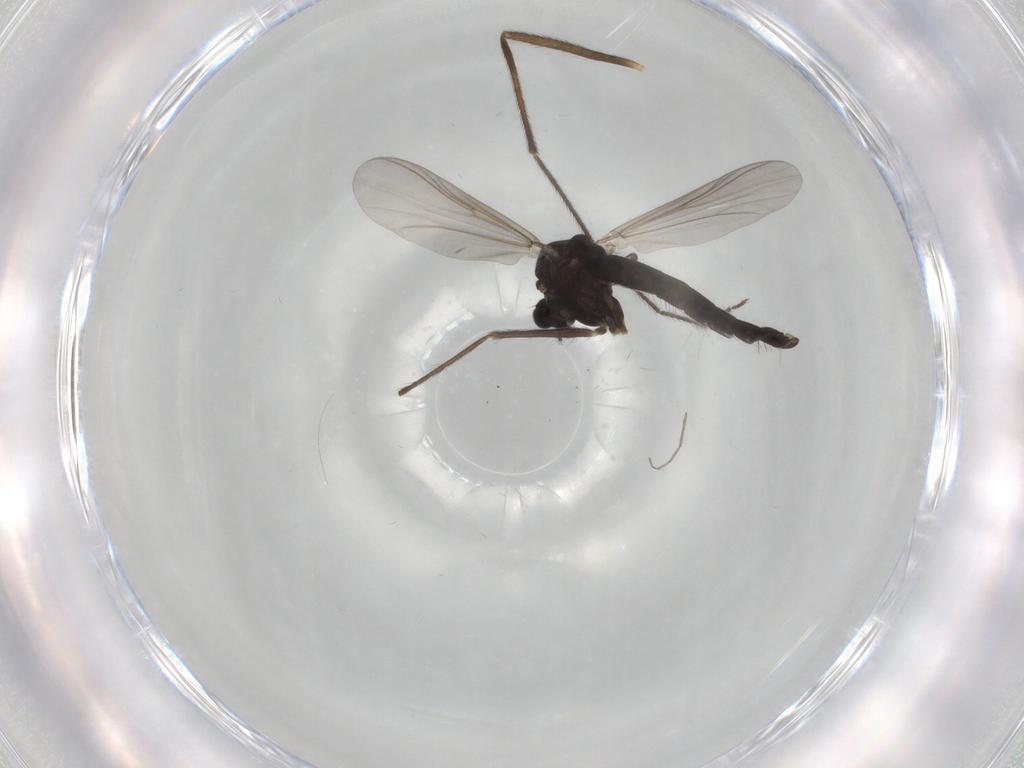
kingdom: Animalia
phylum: Arthropoda
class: Insecta
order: Diptera
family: Chironomidae
